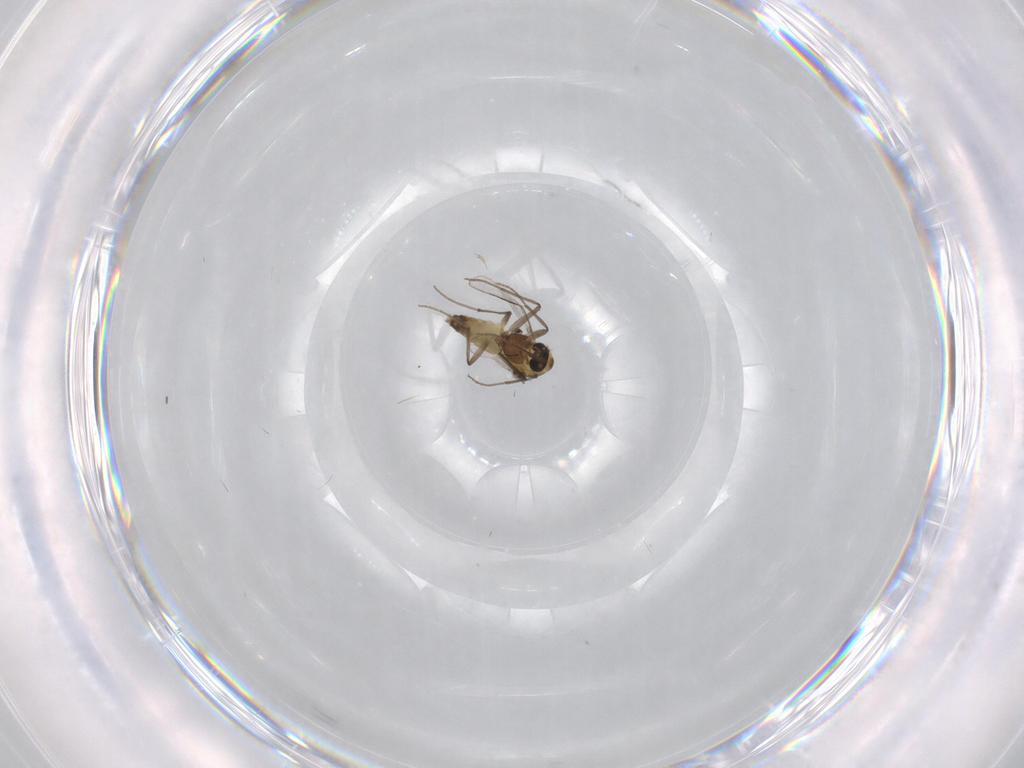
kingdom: Animalia
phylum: Arthropoda
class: Insecta
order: Diptera
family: Chironomidae
